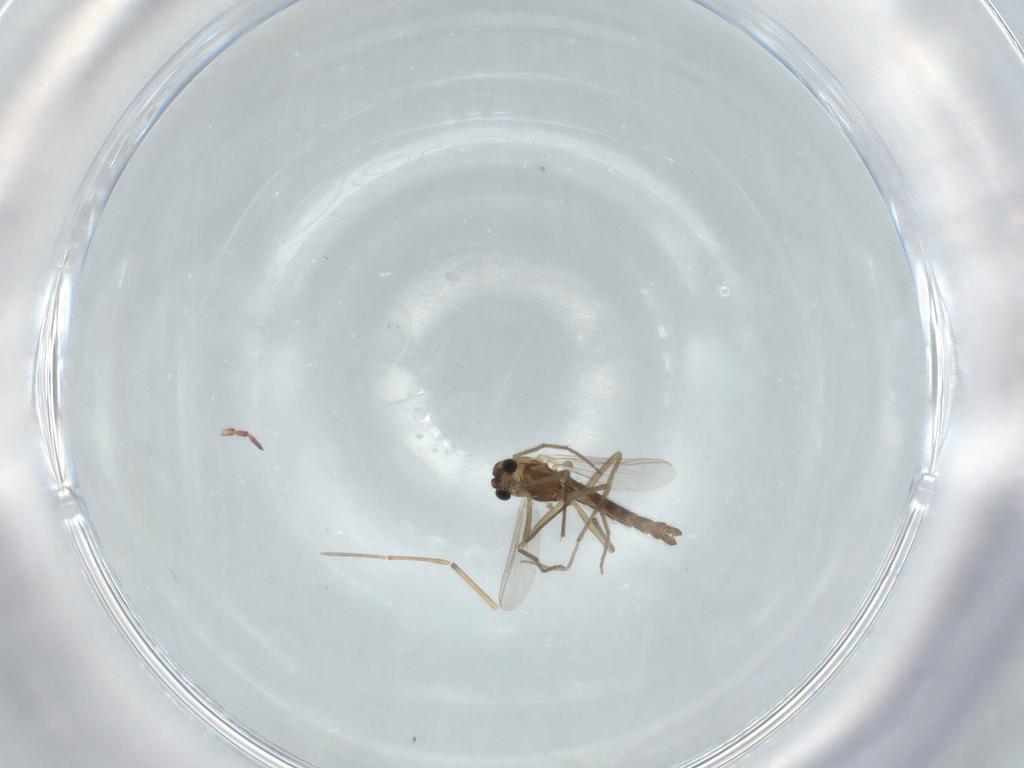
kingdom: Animalia
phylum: Arthropoda
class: Insecta
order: Diptera
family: Chironomidae
